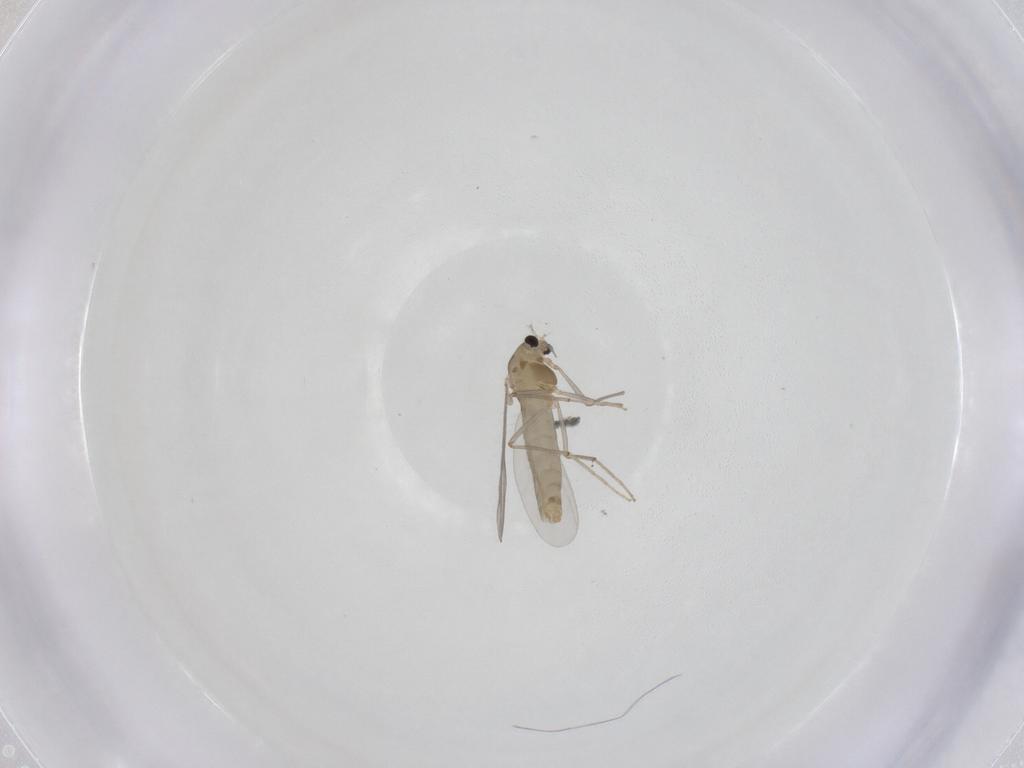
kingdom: Animalia
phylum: Arthropoda
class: Insecta
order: Diptera
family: Chironomidae
